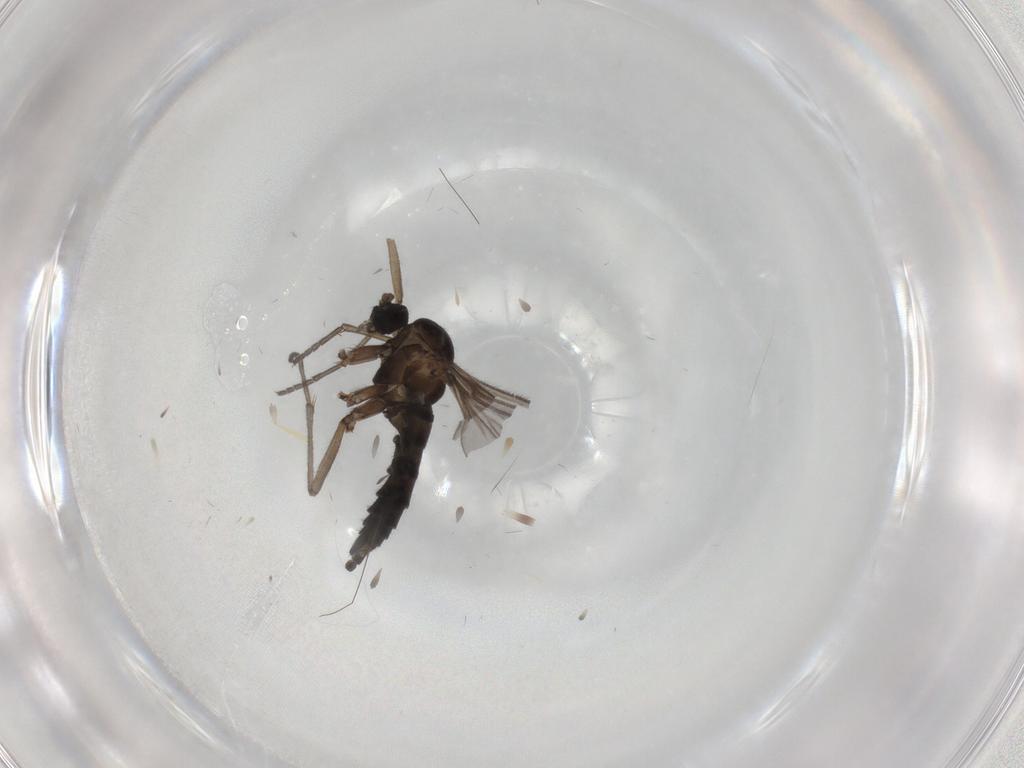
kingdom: Animalia
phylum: Arthropoda
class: Insecta
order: Diptera
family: Sciaridae
